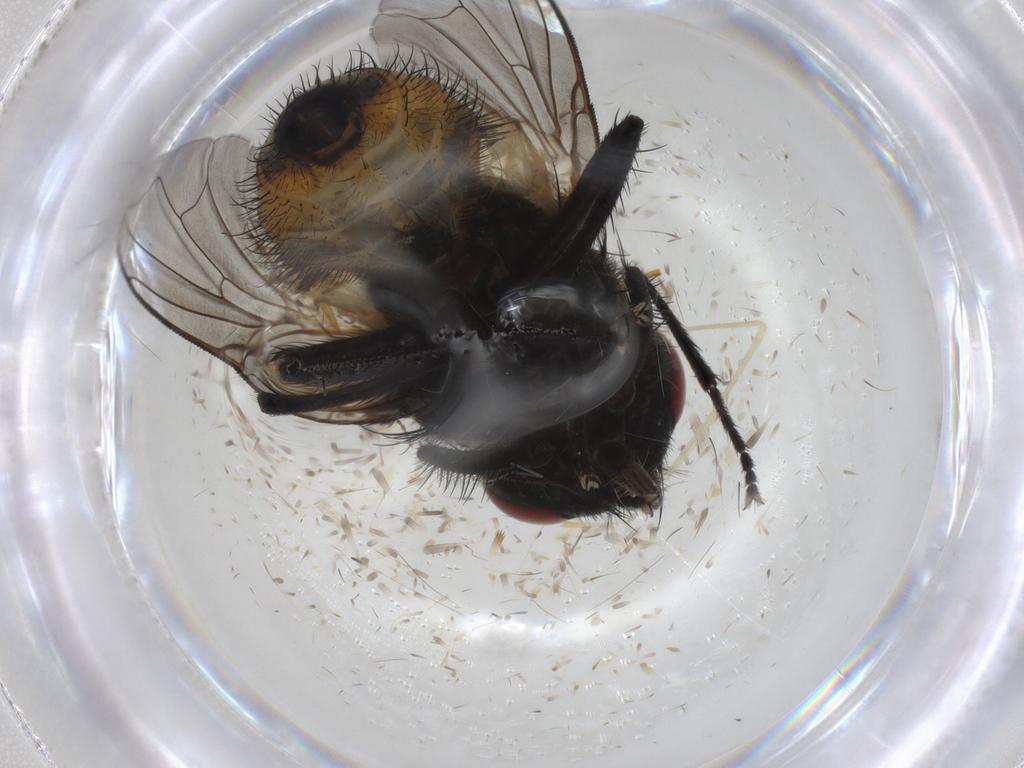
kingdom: Animalia
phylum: Arthropoda
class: Insecta
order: Diptera
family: Muscidae
